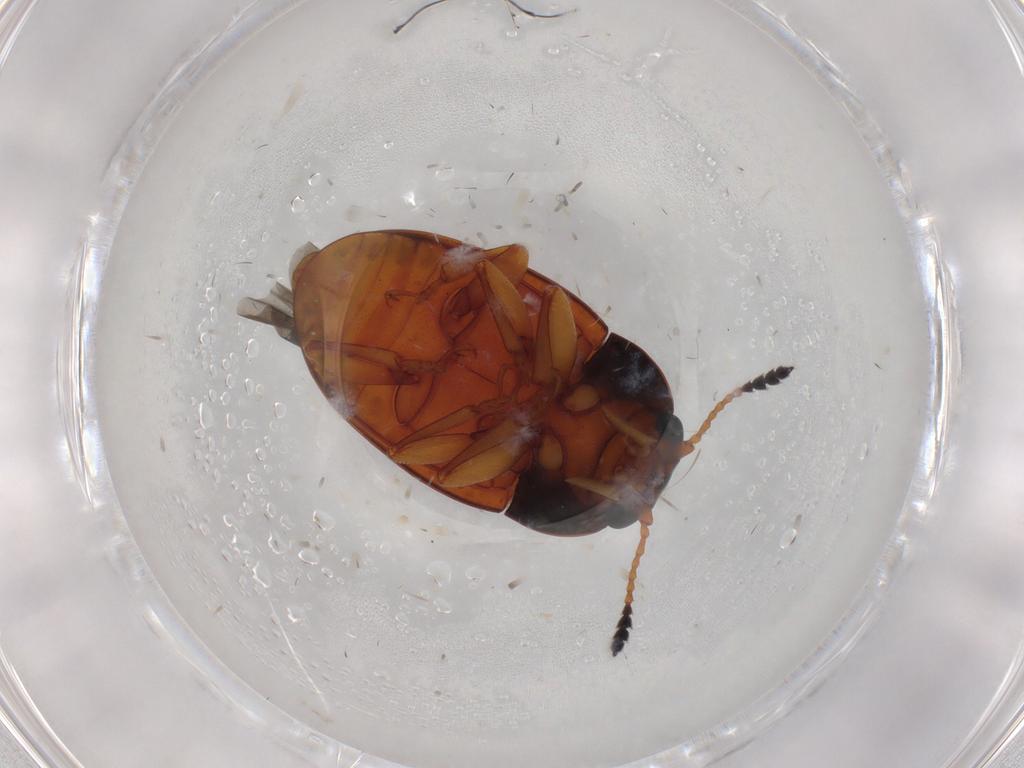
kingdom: Animalia
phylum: Arthropoda
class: Insecta
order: Coleoptera
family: Erotylidae
